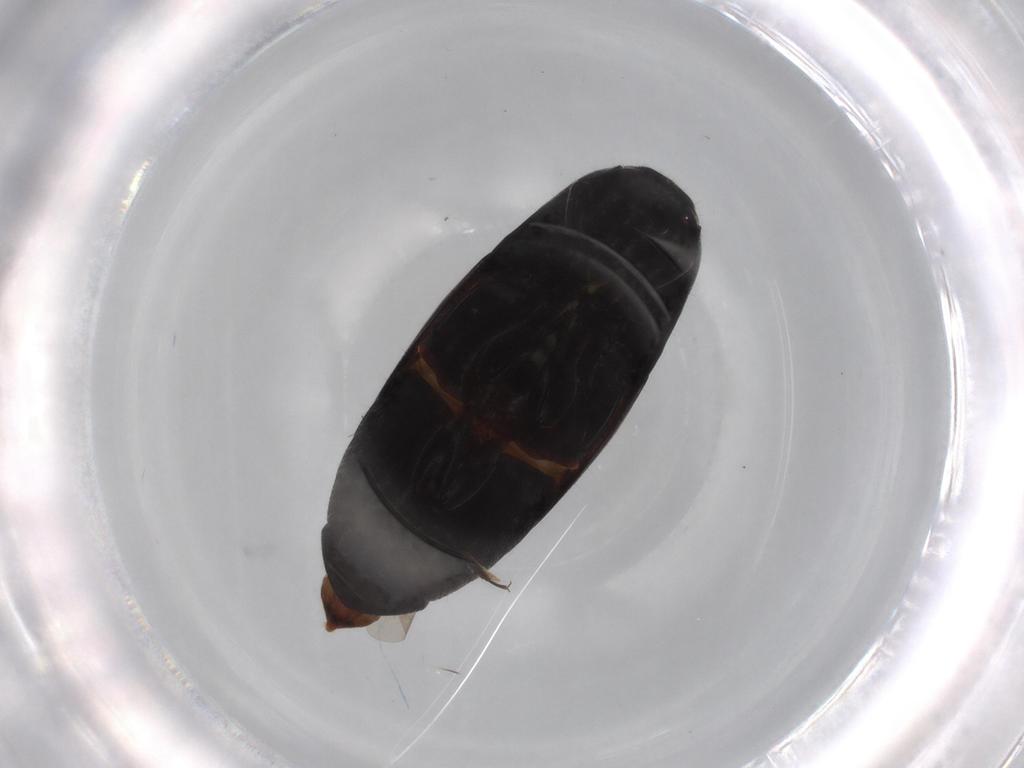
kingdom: Animalia
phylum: Arthropoda
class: Insecta
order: Coleoptera
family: Elateridae
